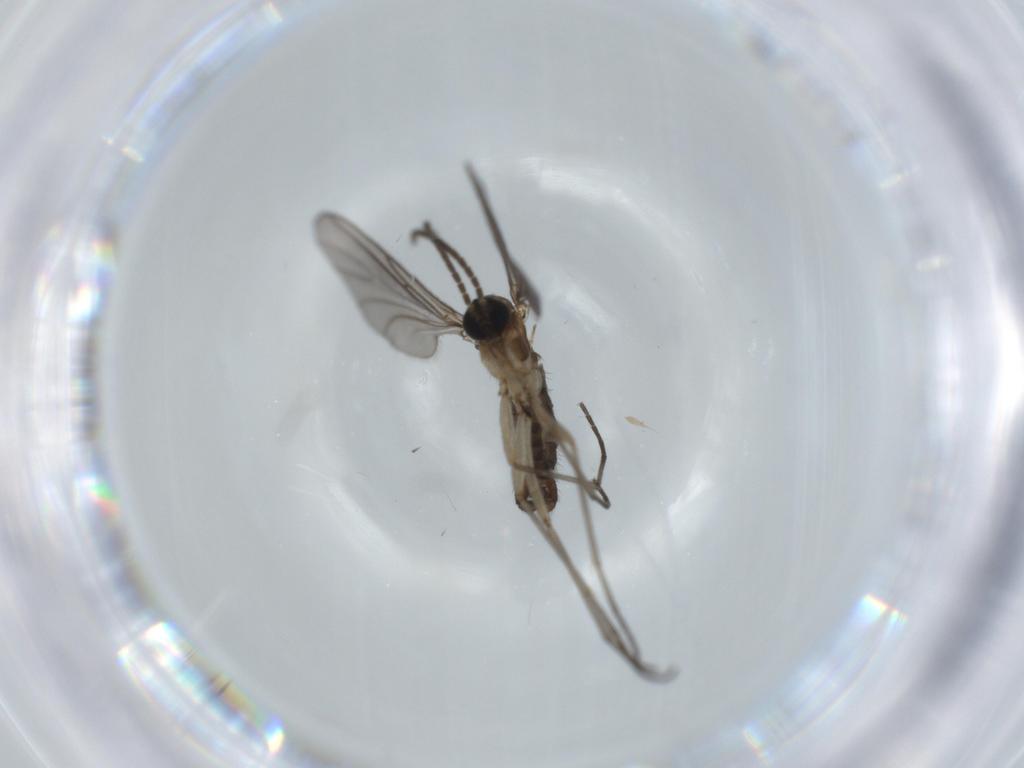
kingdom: Animalia
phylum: Arthropoda
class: Insecta
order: Diptera
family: Sciaridae
